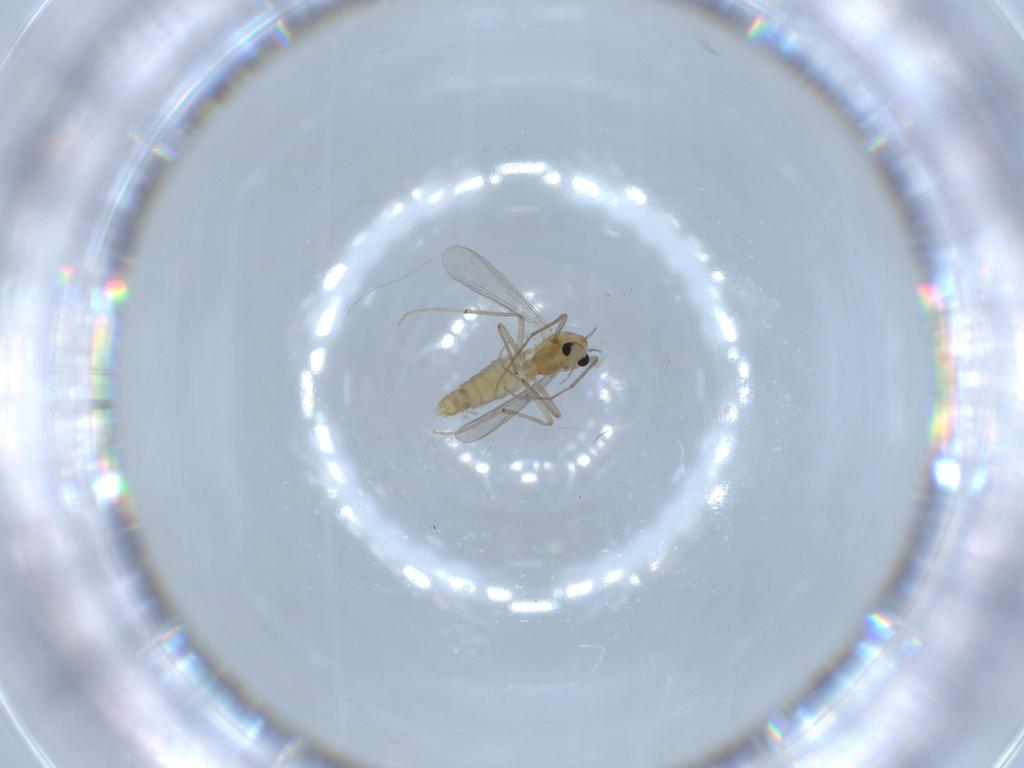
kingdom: Animalia
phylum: Arthropoda
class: Insecta
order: Diptera
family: Chironomidae
